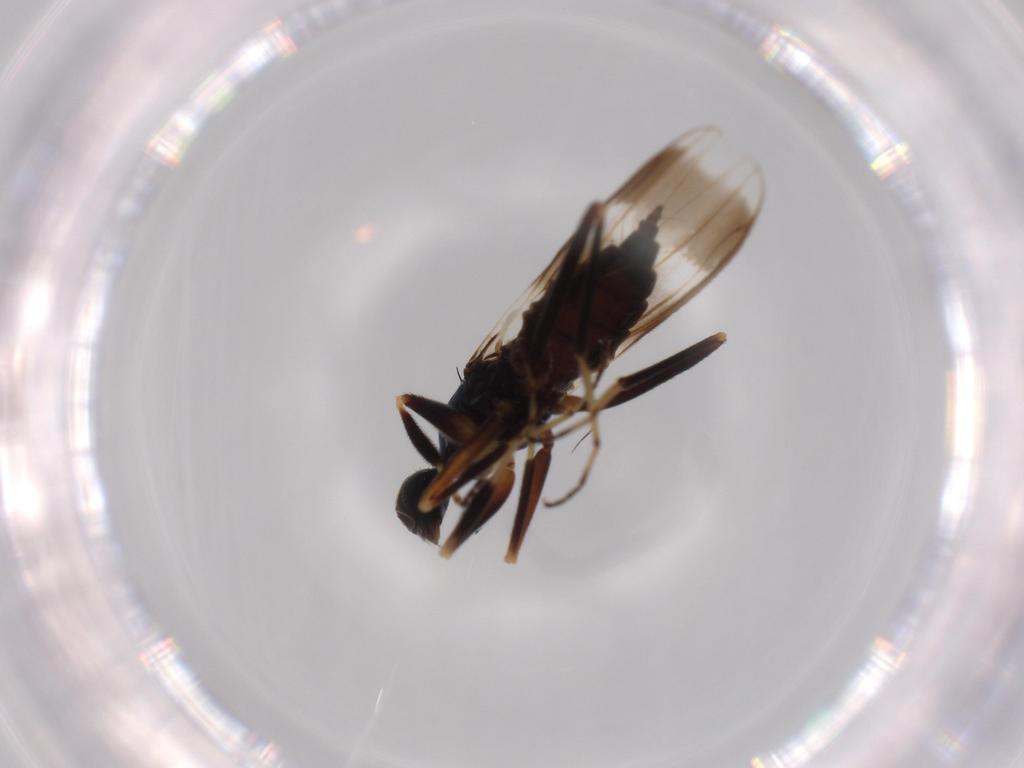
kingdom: Animalia
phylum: Arthropoda
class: Insecta
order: Diptera
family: Hybotidae
